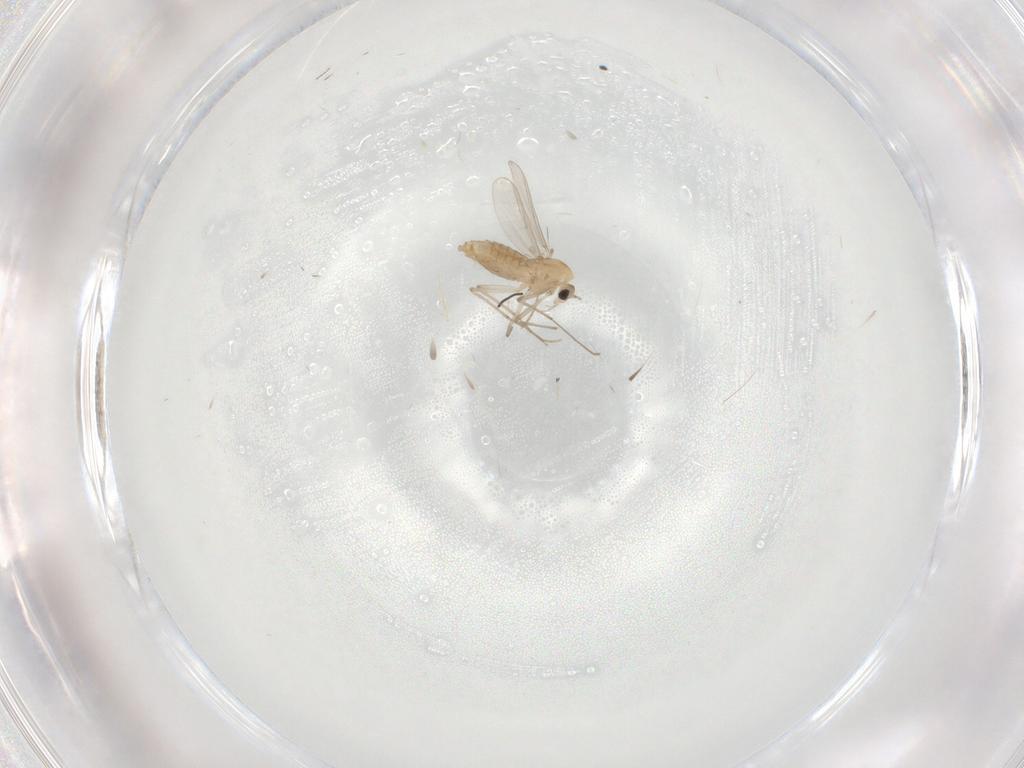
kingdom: Animalia
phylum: Arthropoda
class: Insecta
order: Diptera
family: Chironomidae
